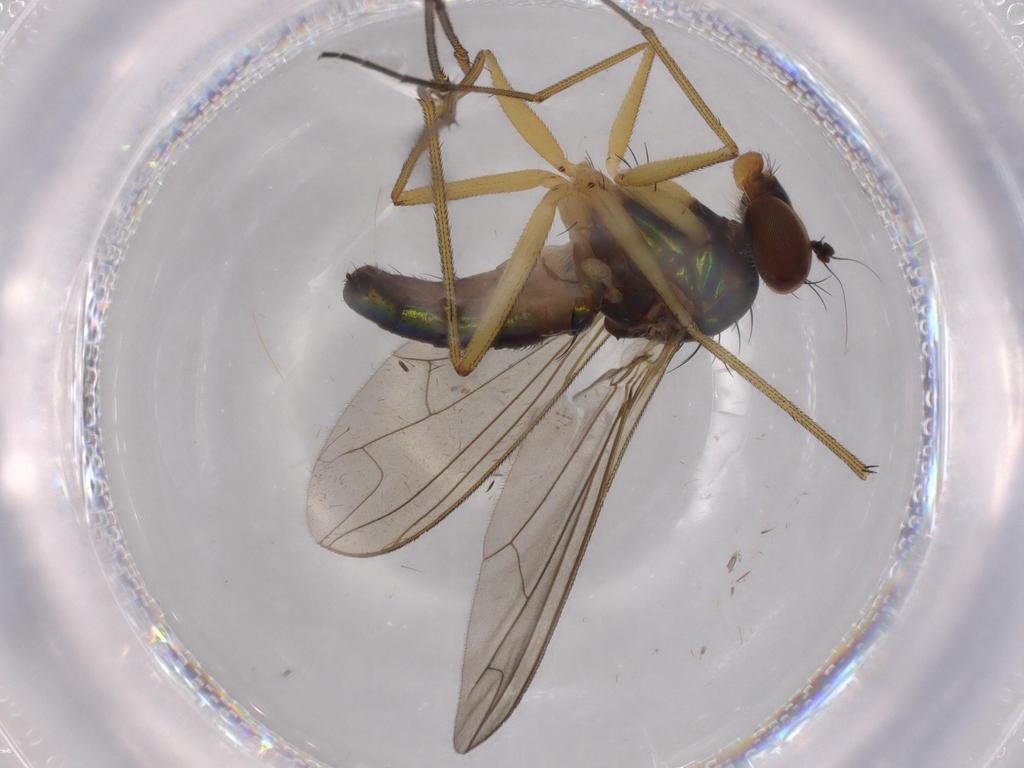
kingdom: Animalia
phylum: Arthropoda
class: Insecta
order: Diptera
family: Dolichopodidae
